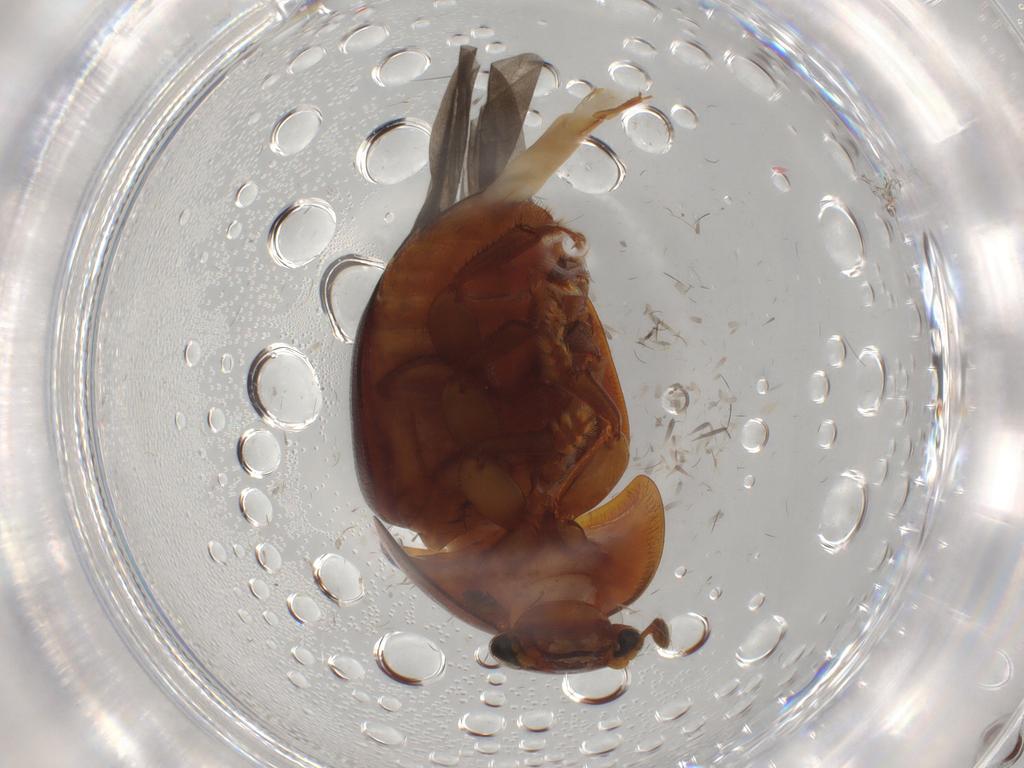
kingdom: Animalia
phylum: Arthropoda
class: Insecta
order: Coleoptera
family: Nitidulidae
